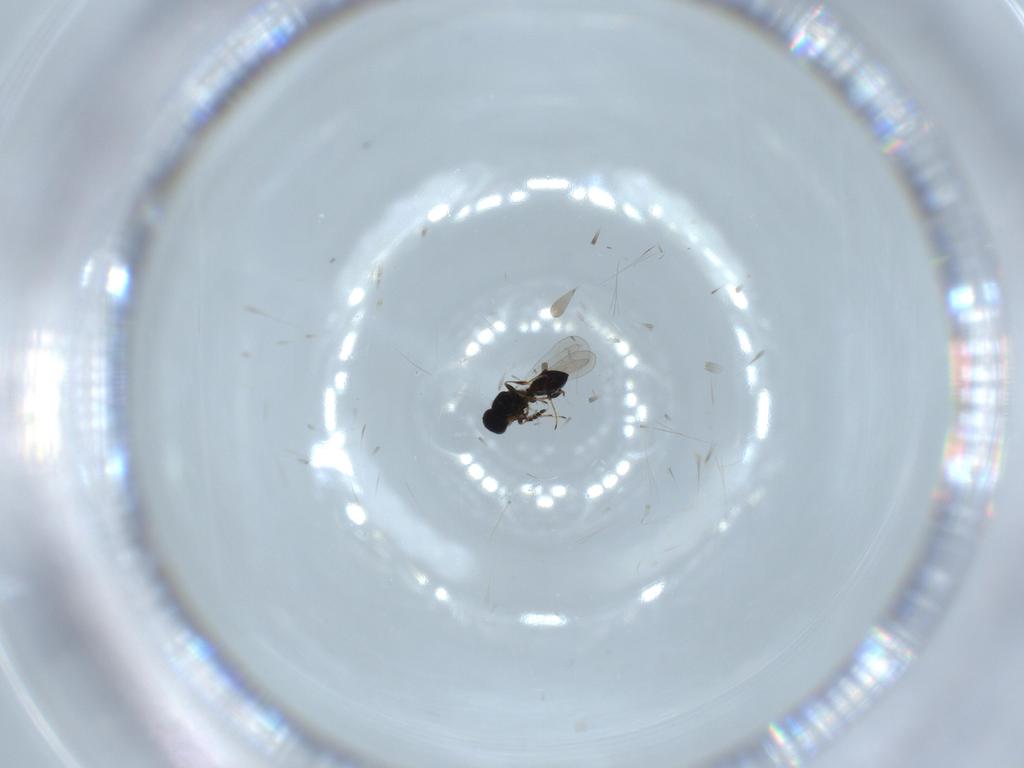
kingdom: Animalia
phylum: Arthropoda
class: Insecta
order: Hymenoptera
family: Platygastridae
